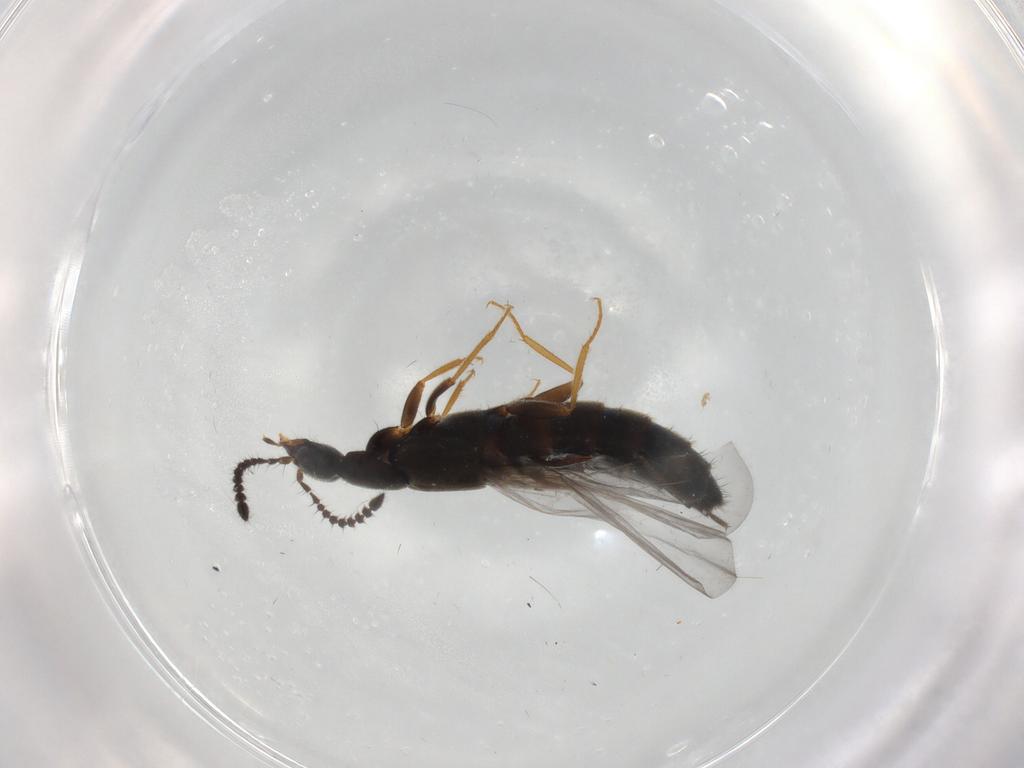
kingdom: Animalia
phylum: Arthropoda
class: Insecta
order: Coleoptera
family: Staphylinidae
